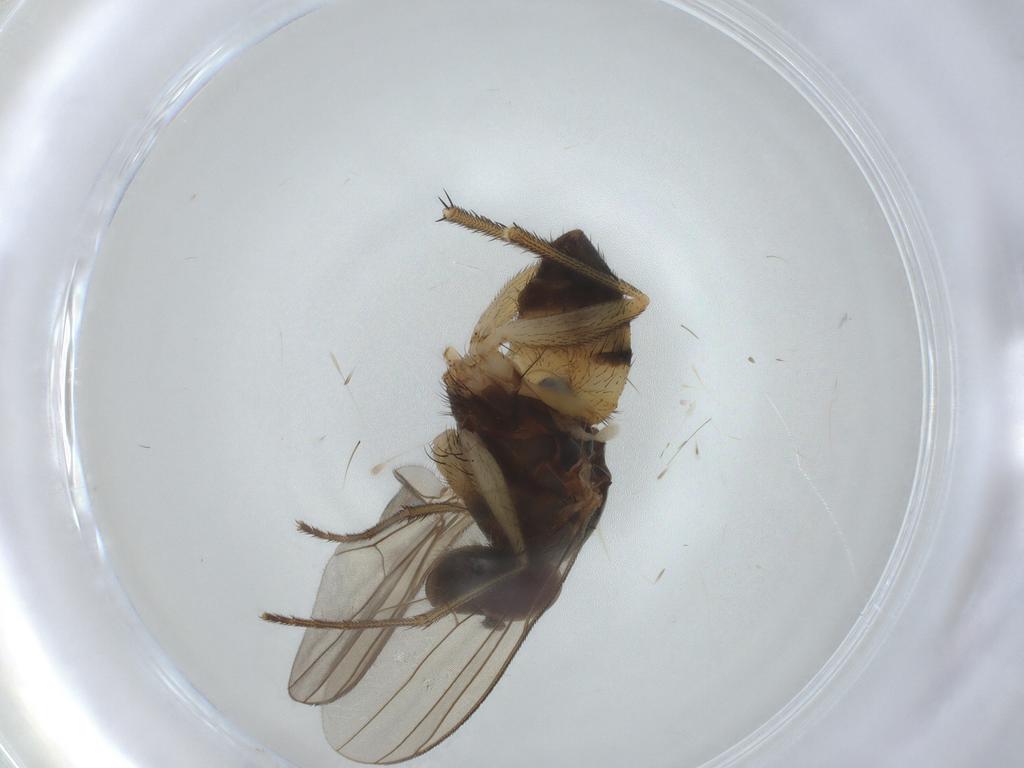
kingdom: Animalia
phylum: Arthropoda
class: Insecta
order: Diptera
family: Dolichopodidae
